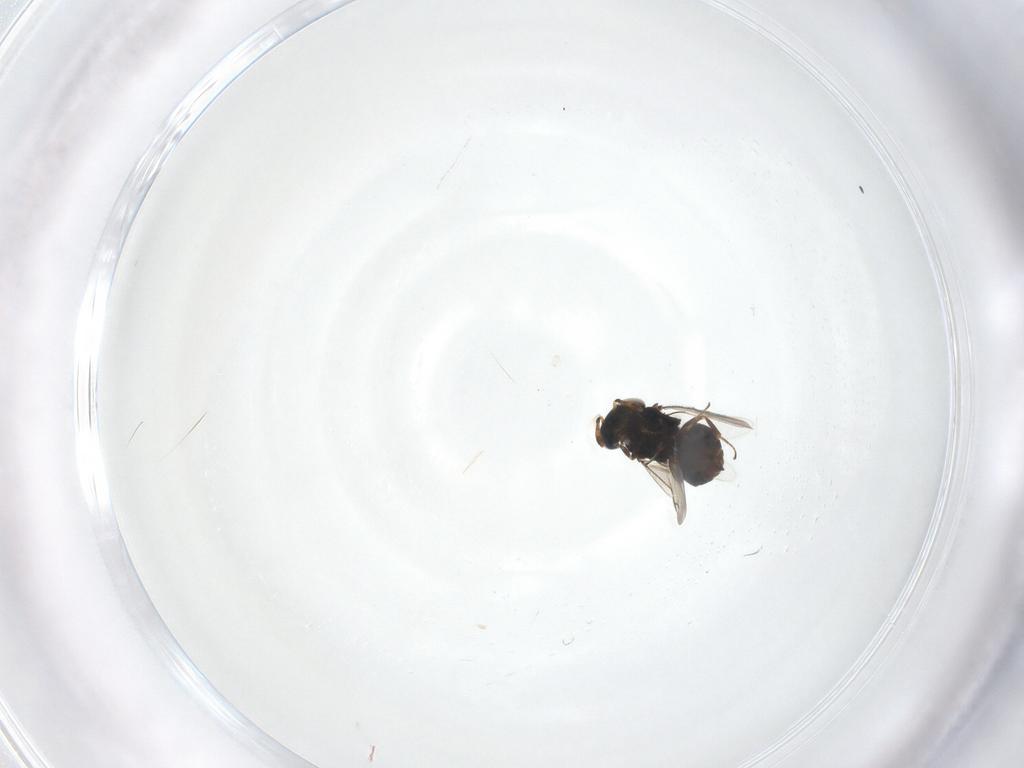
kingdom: Animalia
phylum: Arthropoda
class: Insecta
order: Hymenoptera
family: Eunotidae
